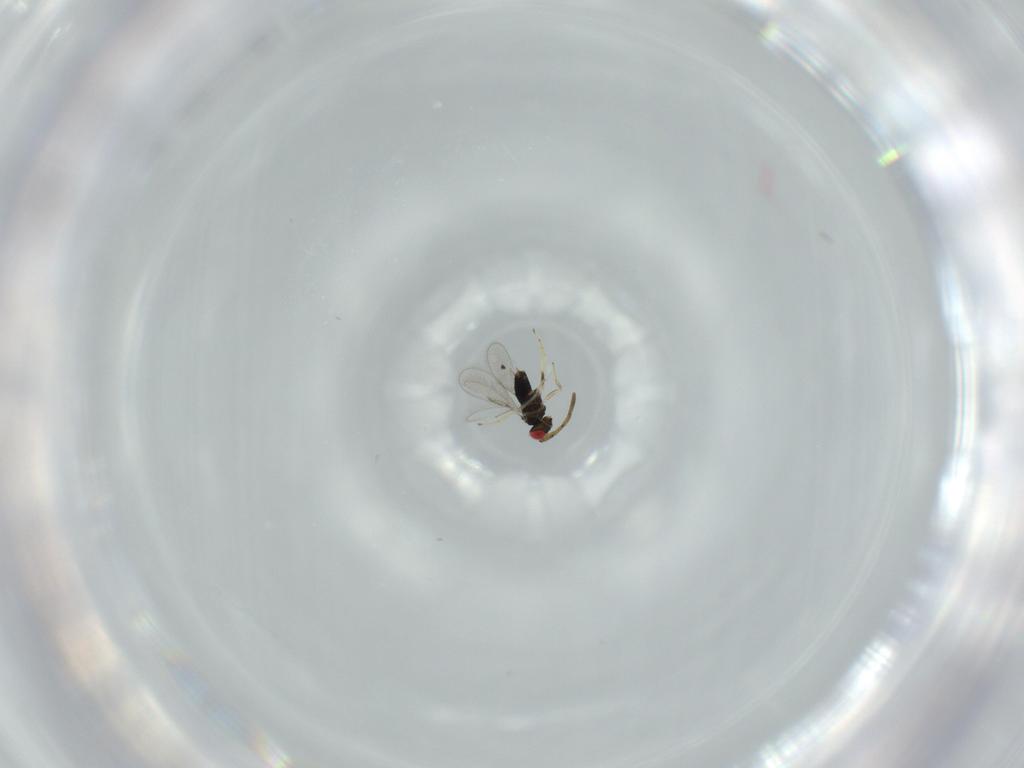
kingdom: Animalia
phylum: Arthropoda
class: Insecta
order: Hymenoptera
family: Azotidae
